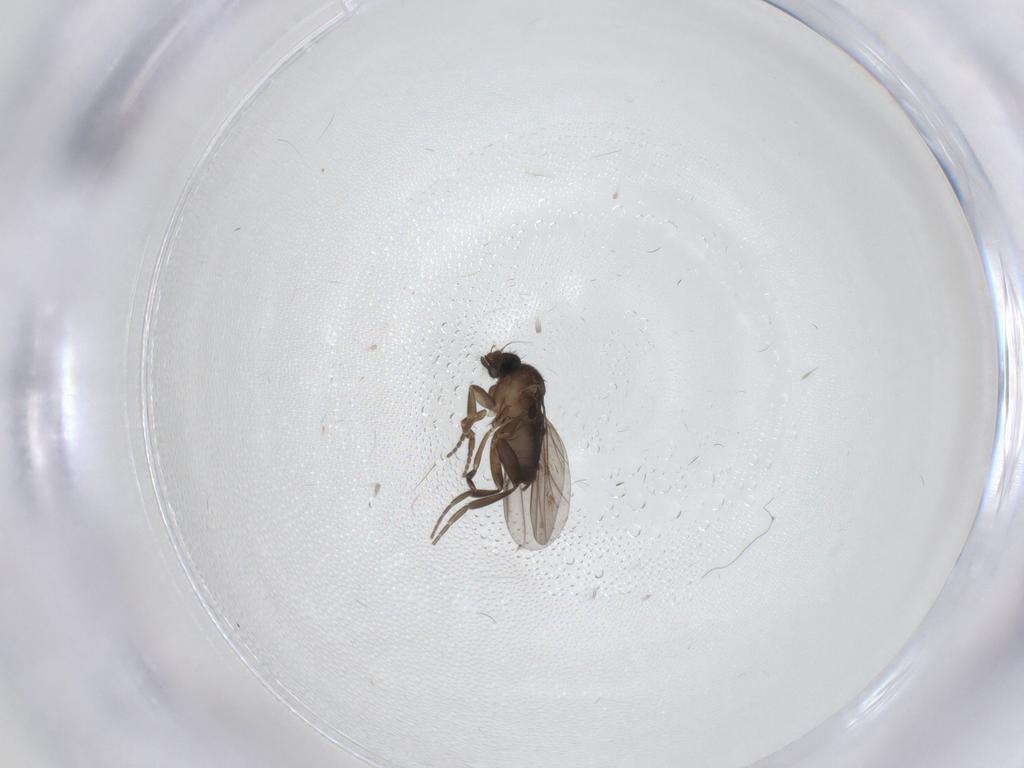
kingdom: Animalia
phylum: Arthropoda
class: Insecta
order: Diptera
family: Phoridae
